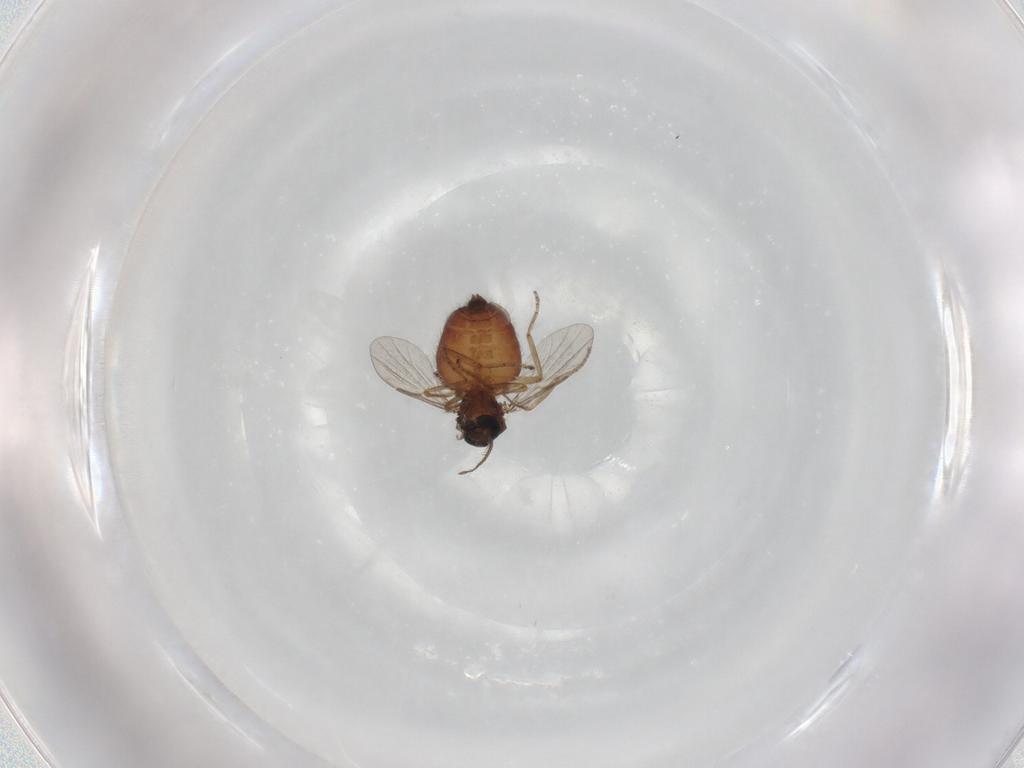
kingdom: Animalia
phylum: Arthropoda
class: Insecta
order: Diptera
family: Ceratopogonidae
